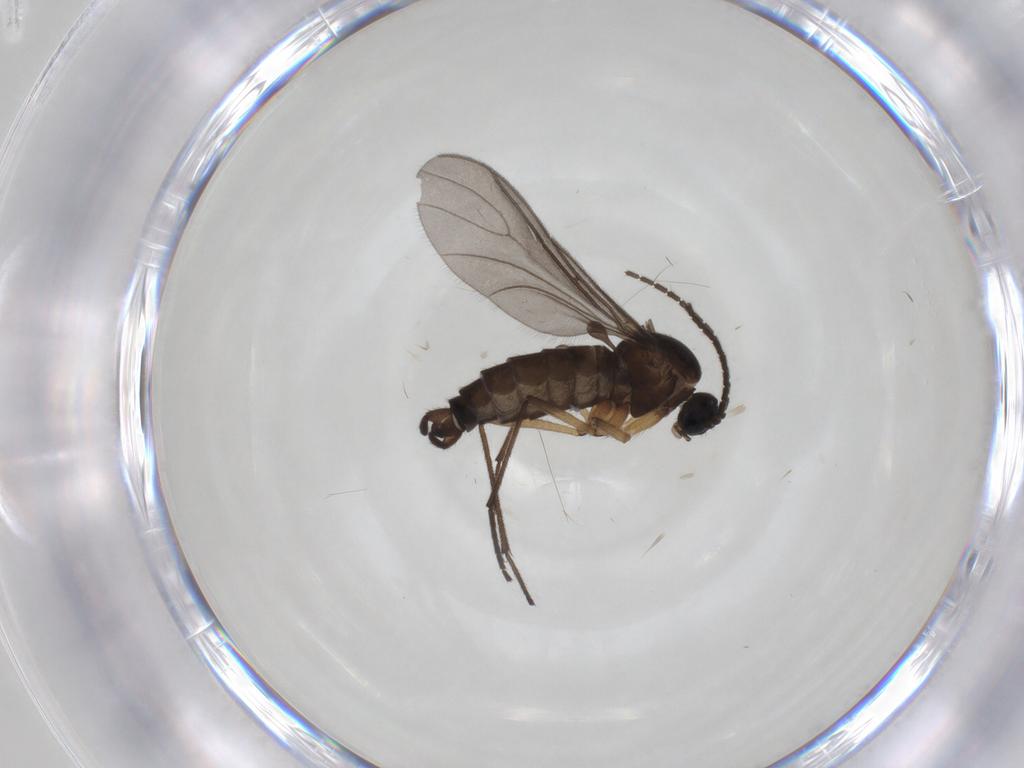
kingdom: Animalia
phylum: Arthropoda
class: Insecta
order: Diptera
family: Sciaridae
